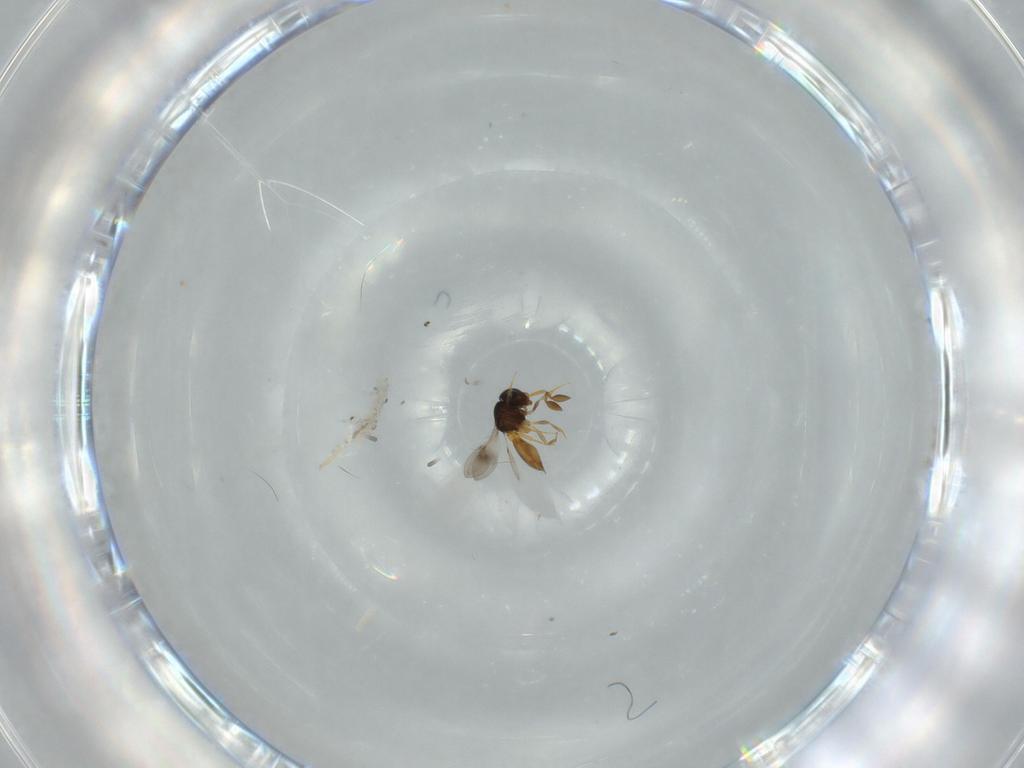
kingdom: Animalia
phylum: Arthropoda
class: Insecta
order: Hymenoptera
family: Scelionidae
